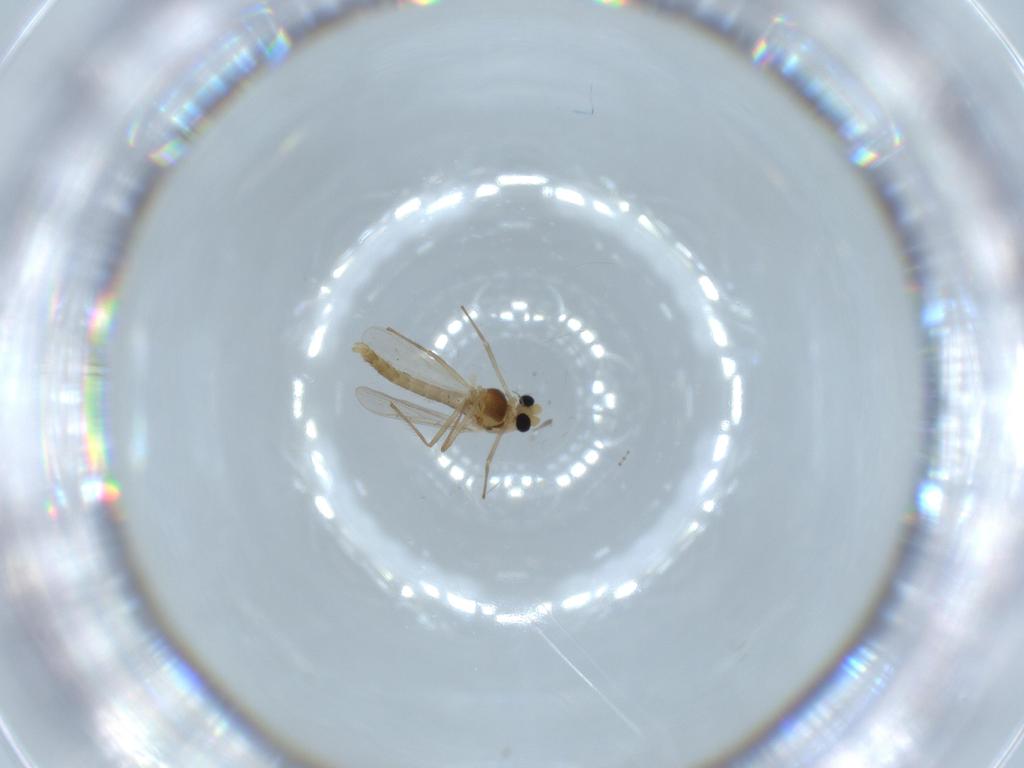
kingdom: Animalia
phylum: Arthropoda
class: Insecta
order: Diptera
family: Cecidomyiidae
